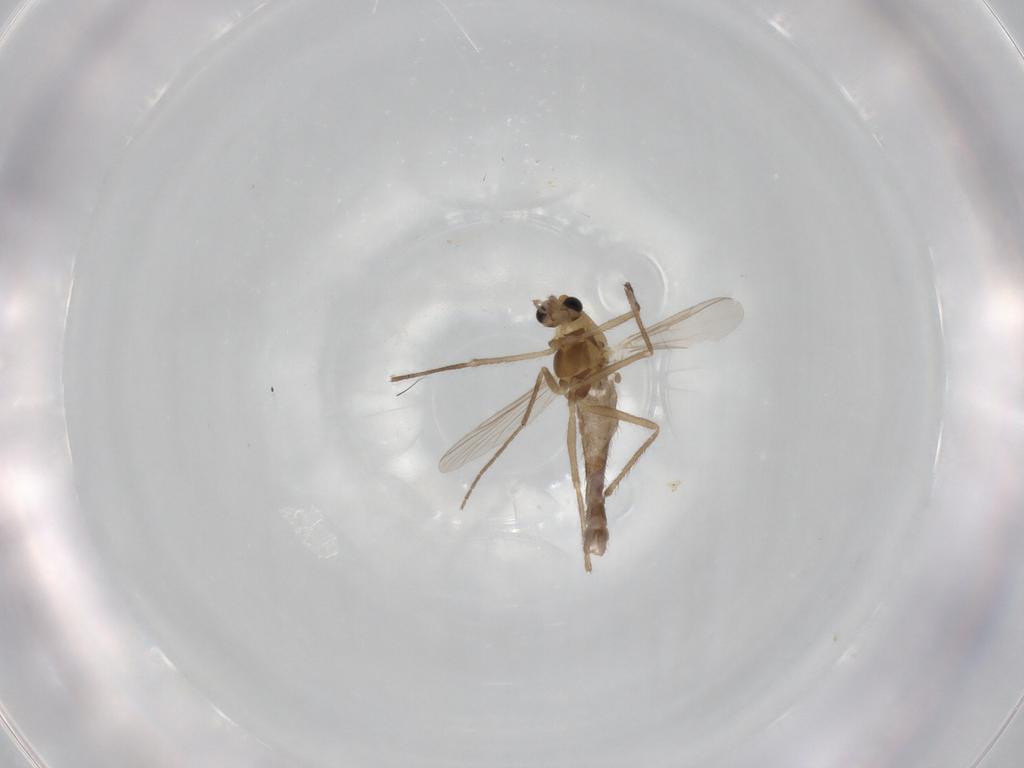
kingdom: Animalia
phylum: Arthropoda
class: Insecta
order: Diptera
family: Chironomidae
